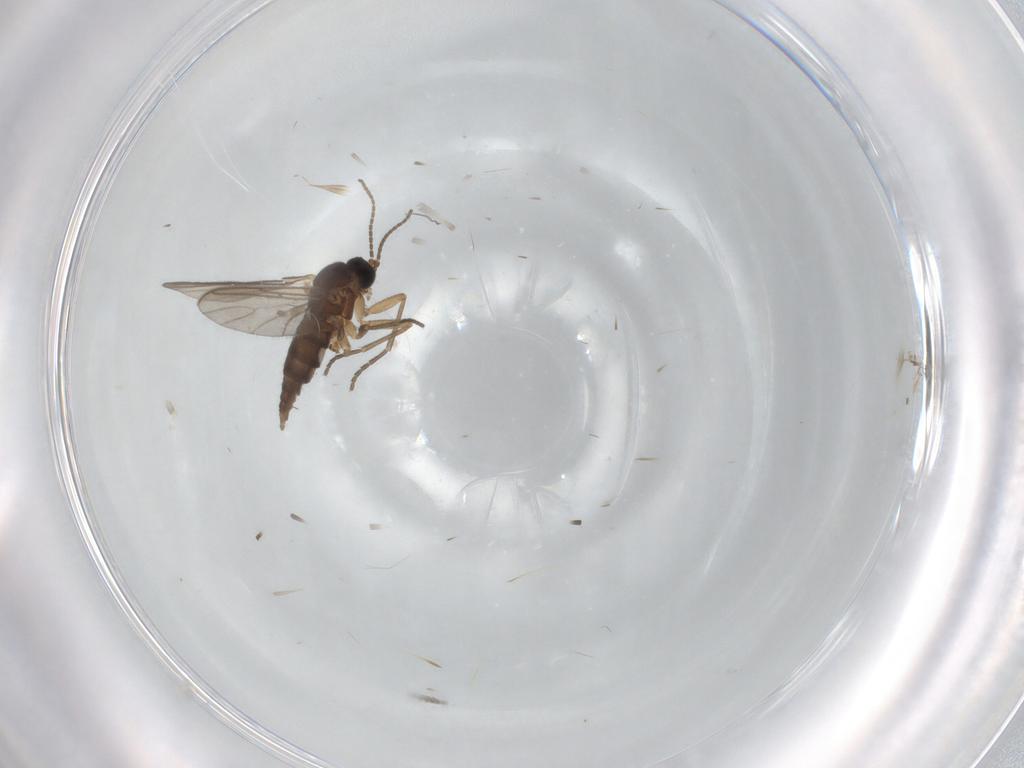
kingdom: Animalia
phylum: Arthropoda
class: Insecta
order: Diptera
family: Sciaridae
